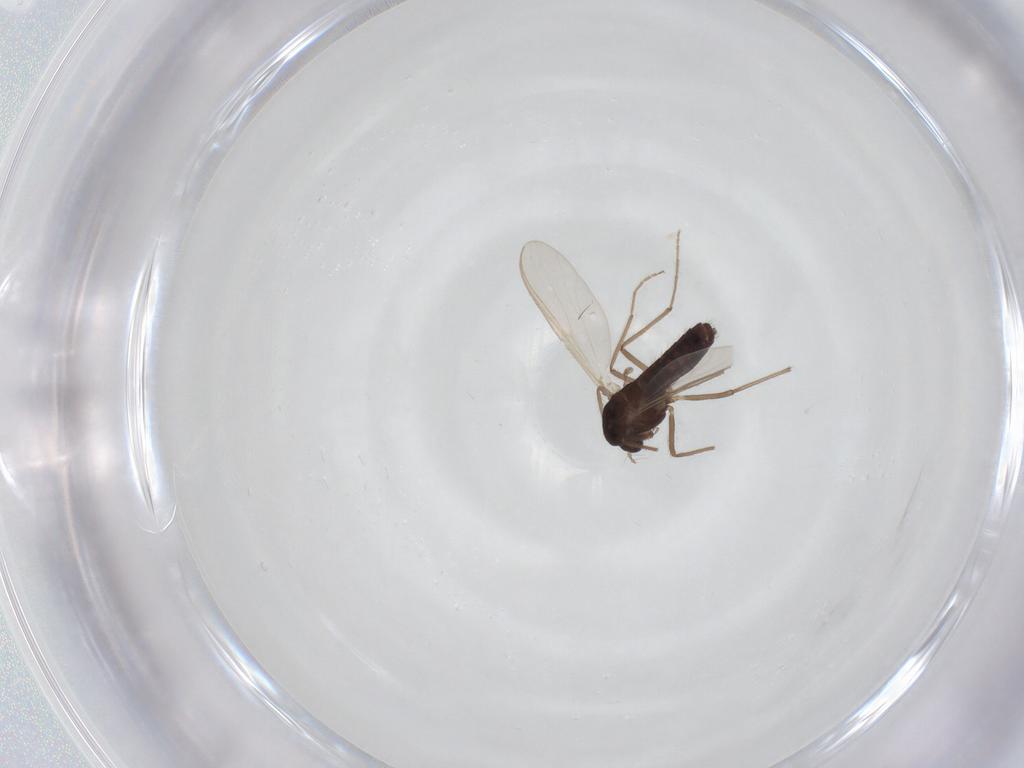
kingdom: Animalia
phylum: Arthropoda
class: Insecta
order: Diptera
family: Chironomidae
